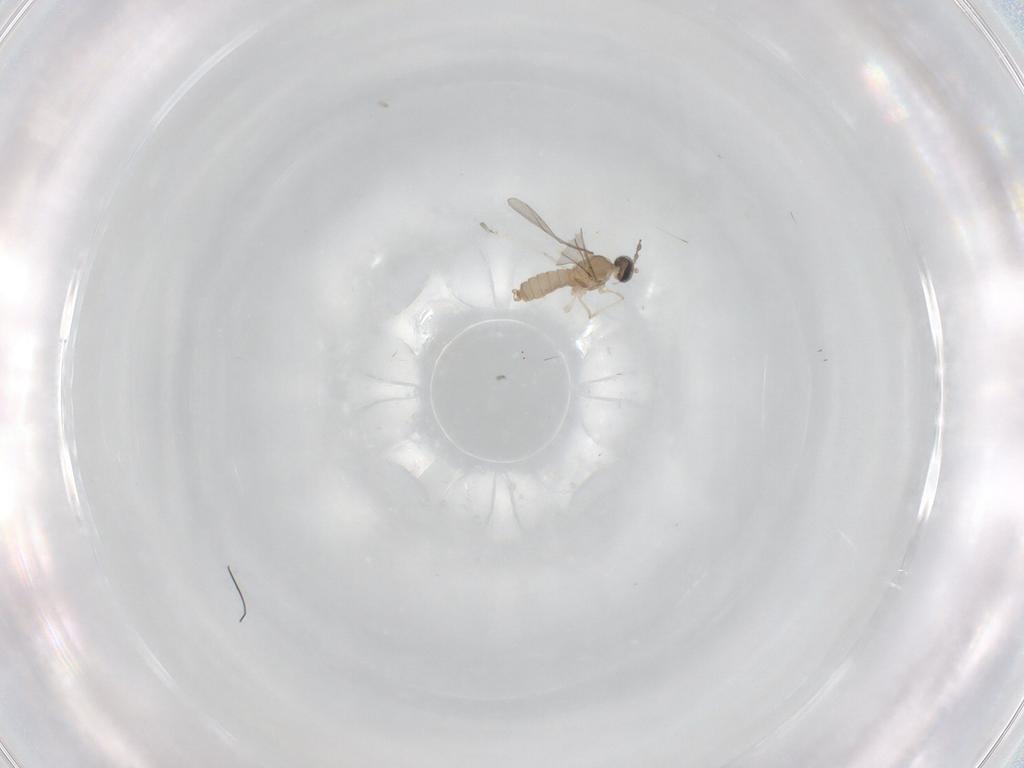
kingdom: Animalia
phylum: Arthropoda
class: Insecta
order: Diptera
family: Cecidomyiidae
